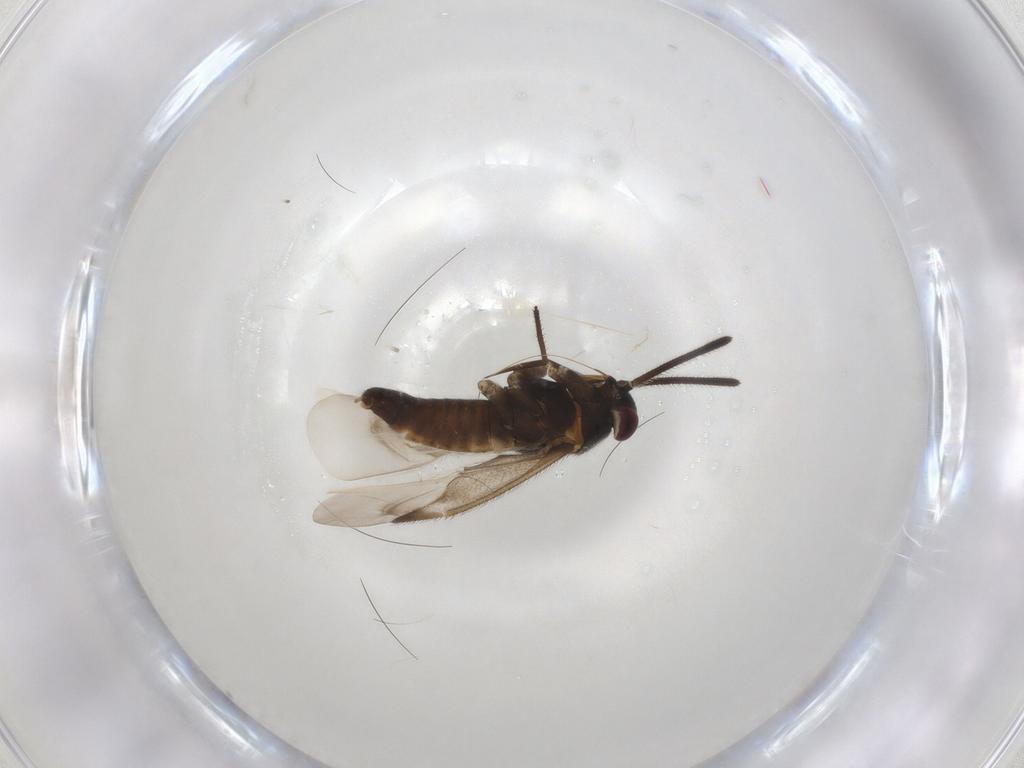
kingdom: Animalia
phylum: Arthropoda
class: Insecta
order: Hemiptera
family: Miridae
